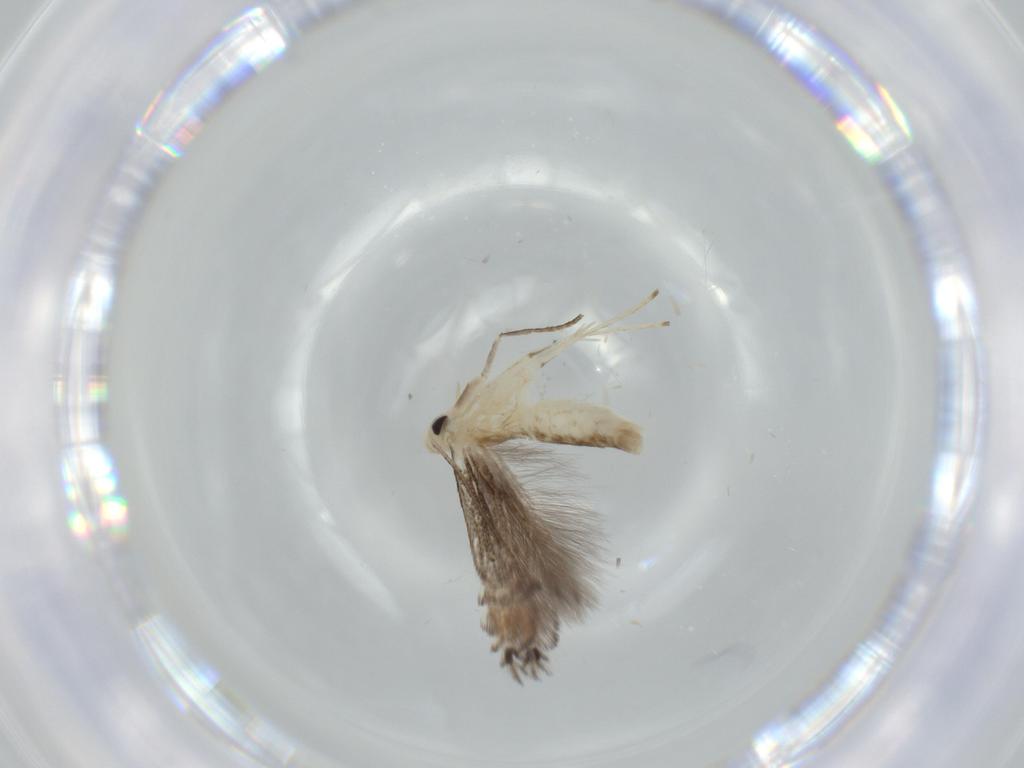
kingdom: Animalia
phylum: Arthropoda
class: Insecta
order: Lepidoptera
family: Gracillariidae
